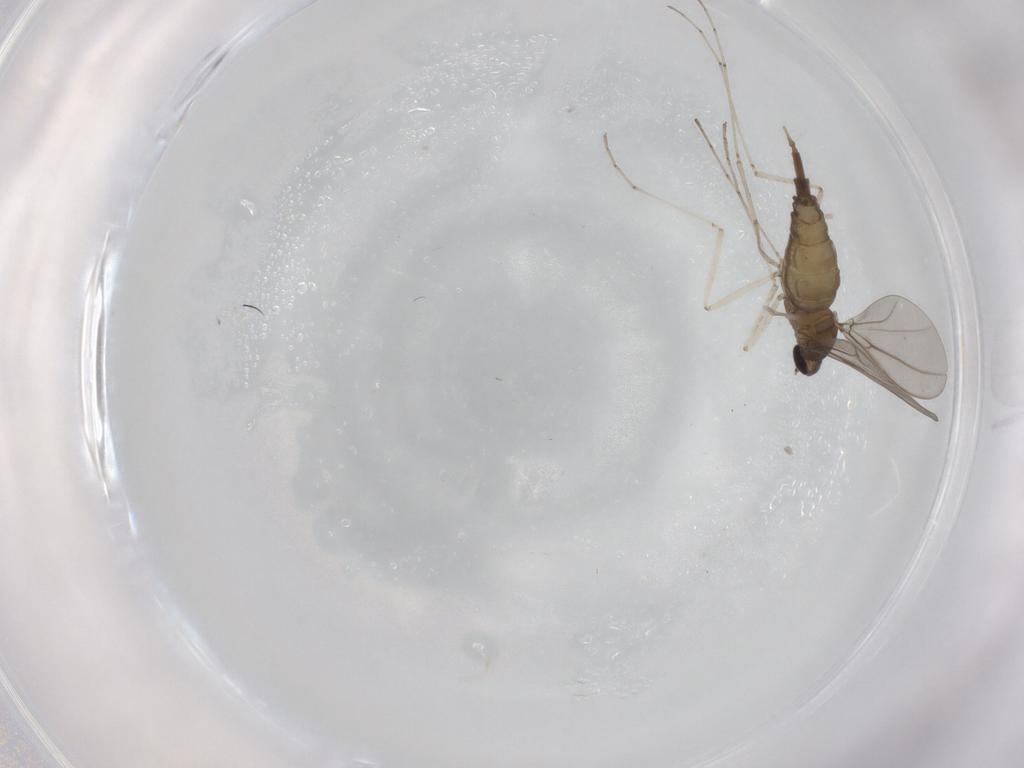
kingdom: Animalia
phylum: Arthropoda
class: Insecta
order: Diptera
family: Cecidomyiidae
